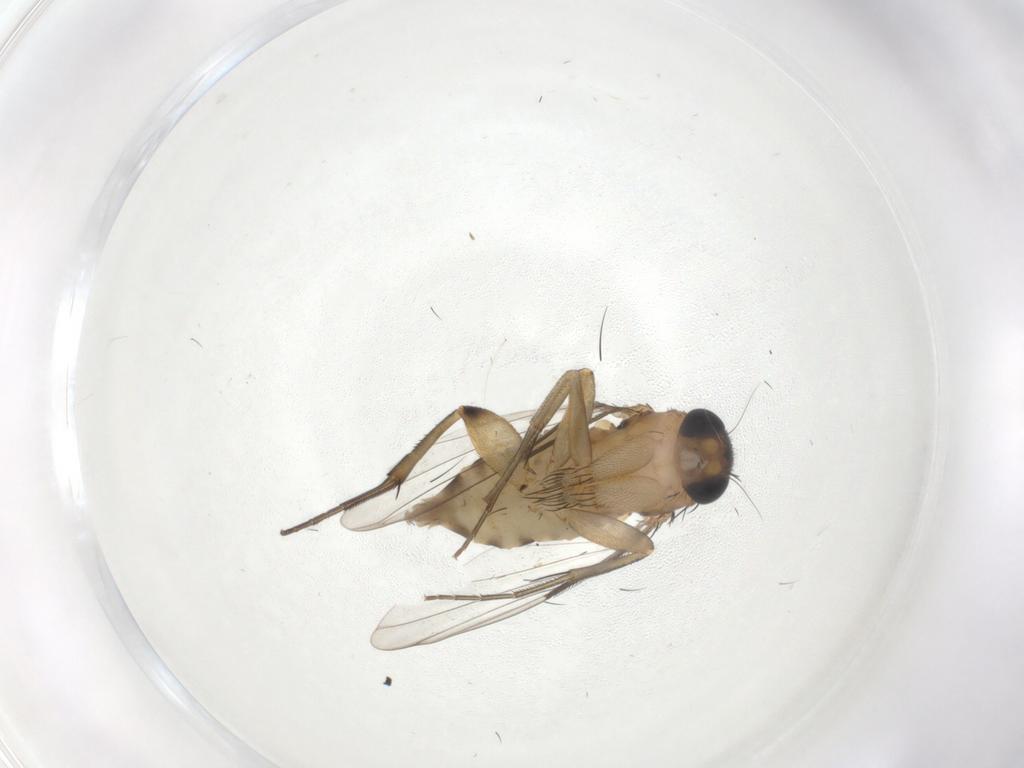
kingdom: Animalia
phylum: Arthropoda
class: Insecta
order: Diptera
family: Phoridae
